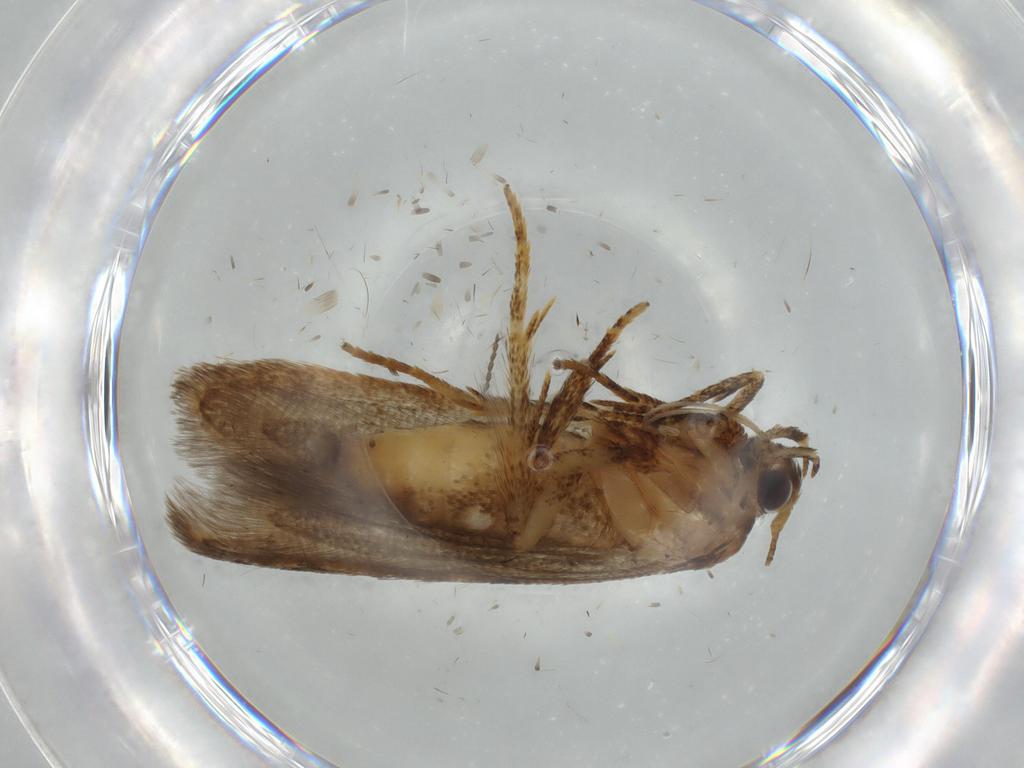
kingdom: Animalia
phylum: Arthropoda
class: Insecta
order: Lepidoptera
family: Coleophoridae
